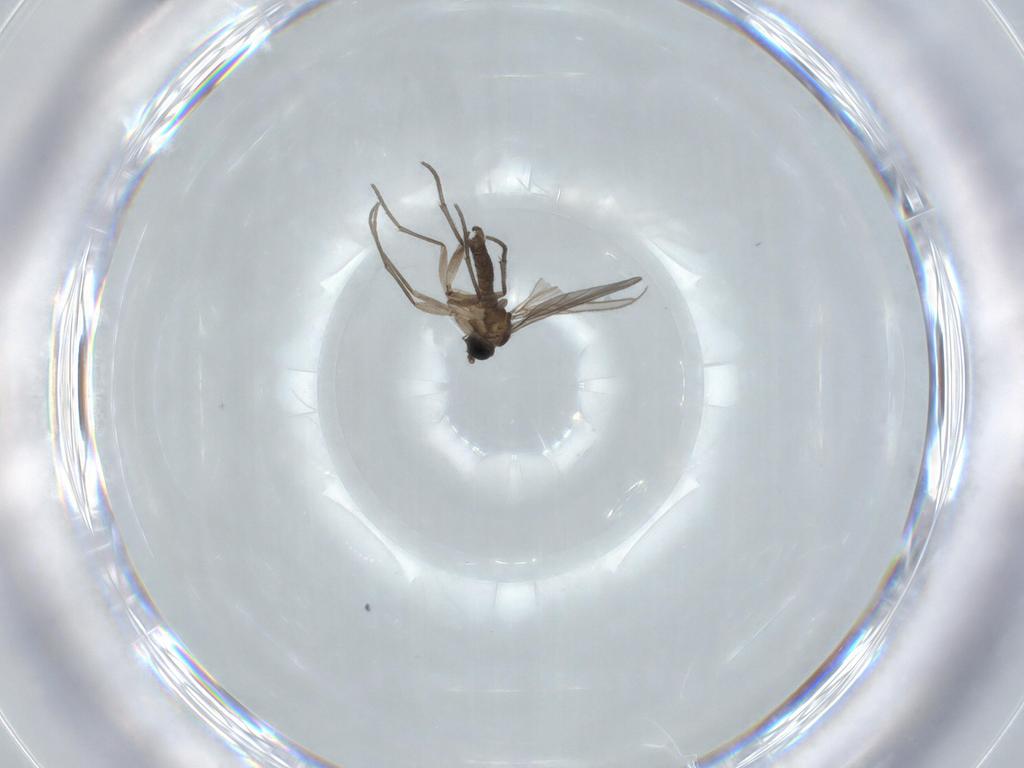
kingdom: Animalia
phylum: Arthropoda
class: Insecta
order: Diptera
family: Sciaridae
